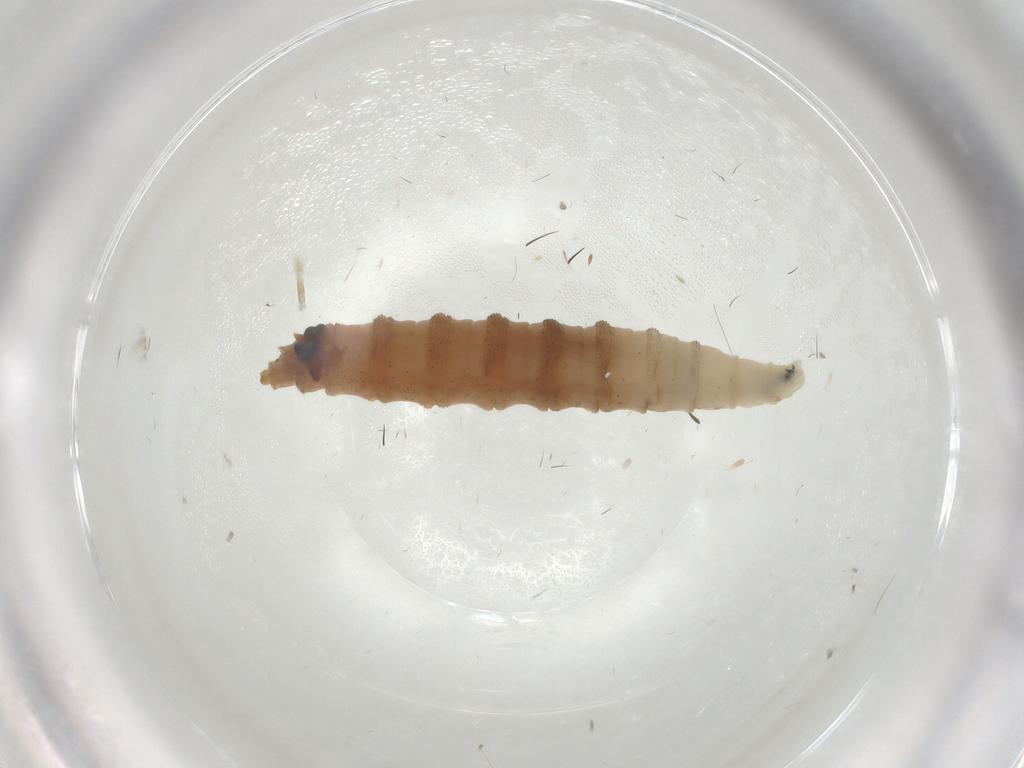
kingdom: Animalia
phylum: Arthropoda
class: Insecta
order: Diptera
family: Drosophilidae
